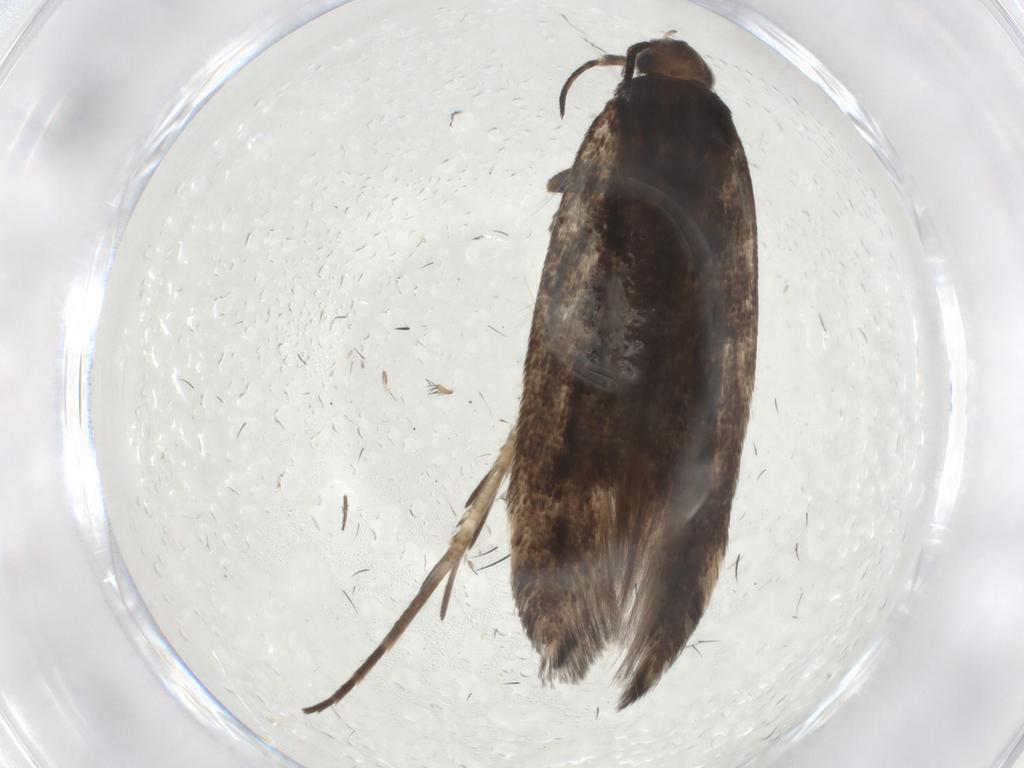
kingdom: Animalia
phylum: Arthropoda
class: Insecta
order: Lepidoptera
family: Gelechiidae
